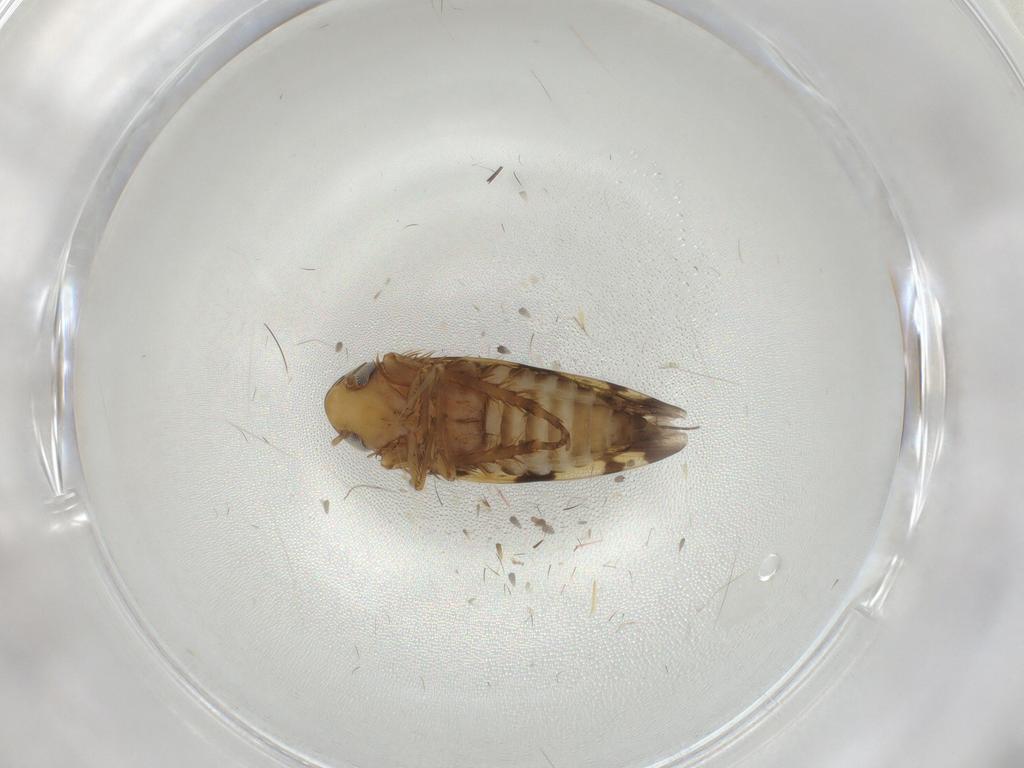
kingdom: Animalia
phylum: Arthropoda
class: Insecta
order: Hemiptera
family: Cicadellidae
